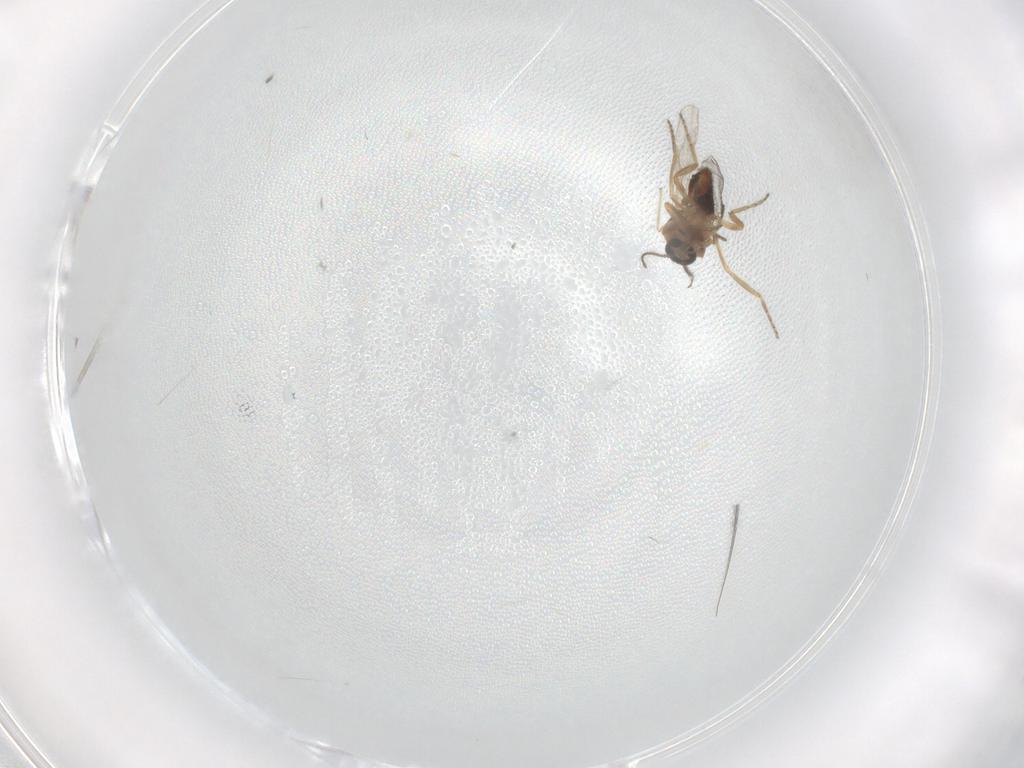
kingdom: Animalia
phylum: Arthropoda
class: Insecta
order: Diptera
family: Ceratopogonidae
